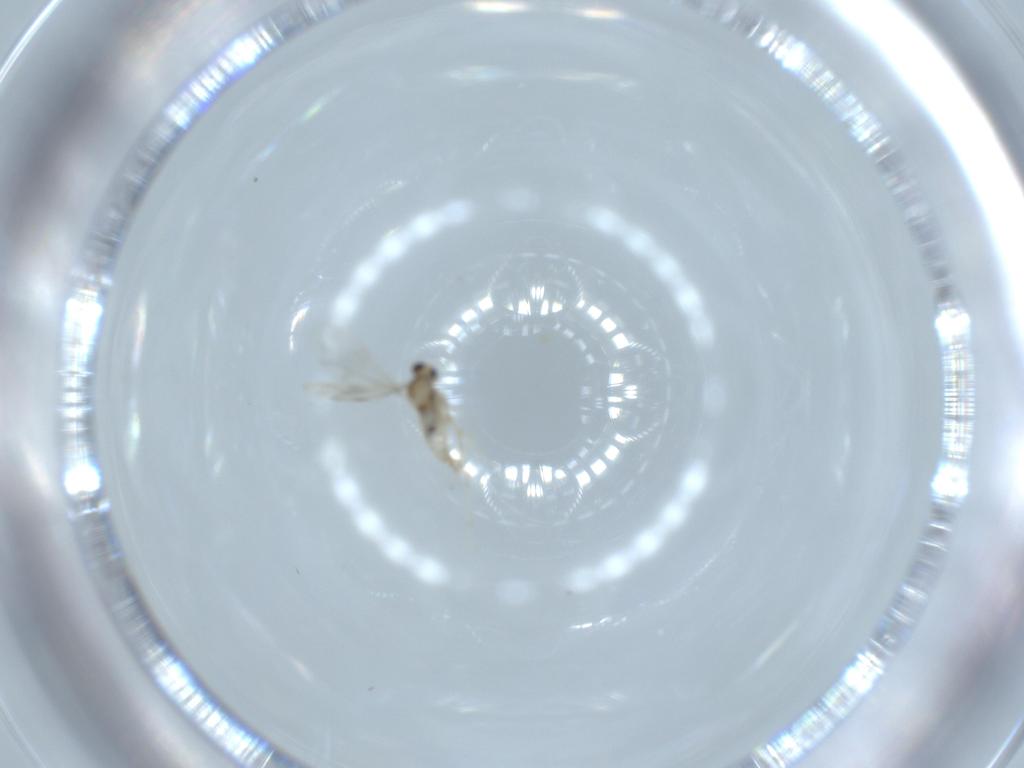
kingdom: Animalia
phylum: Arthropoda
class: Insecta
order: Diptera
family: Cecidomyiidae
